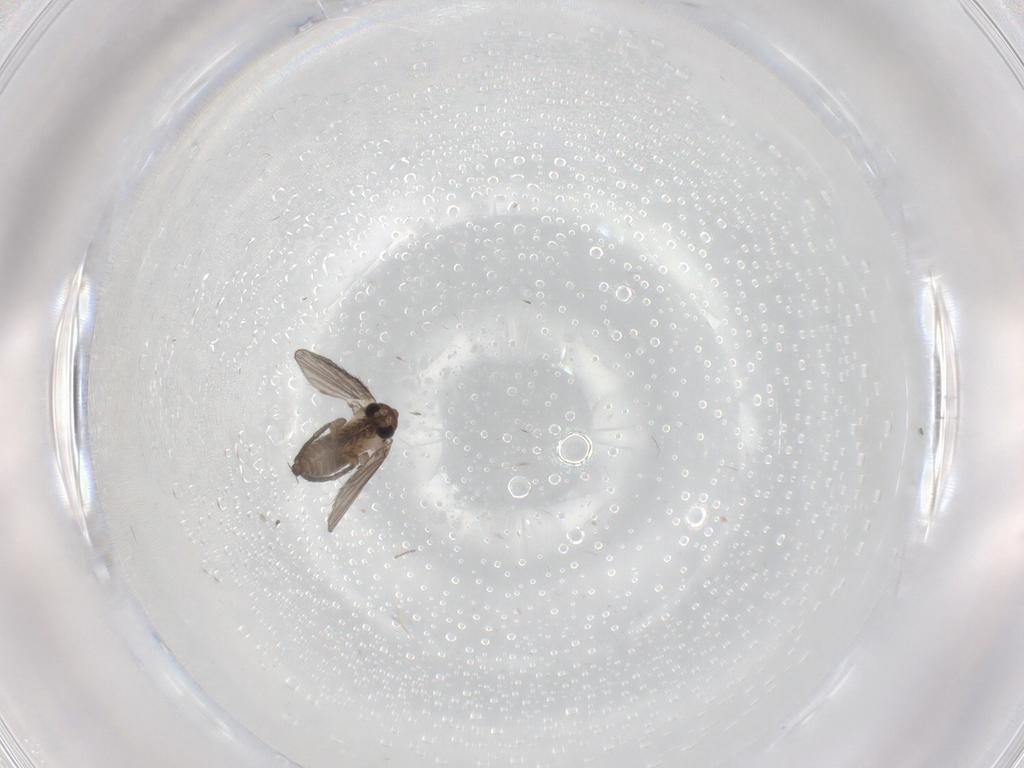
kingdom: Animalia
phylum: Arthropoda
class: Insecta
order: Diptera
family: Psychodidae
